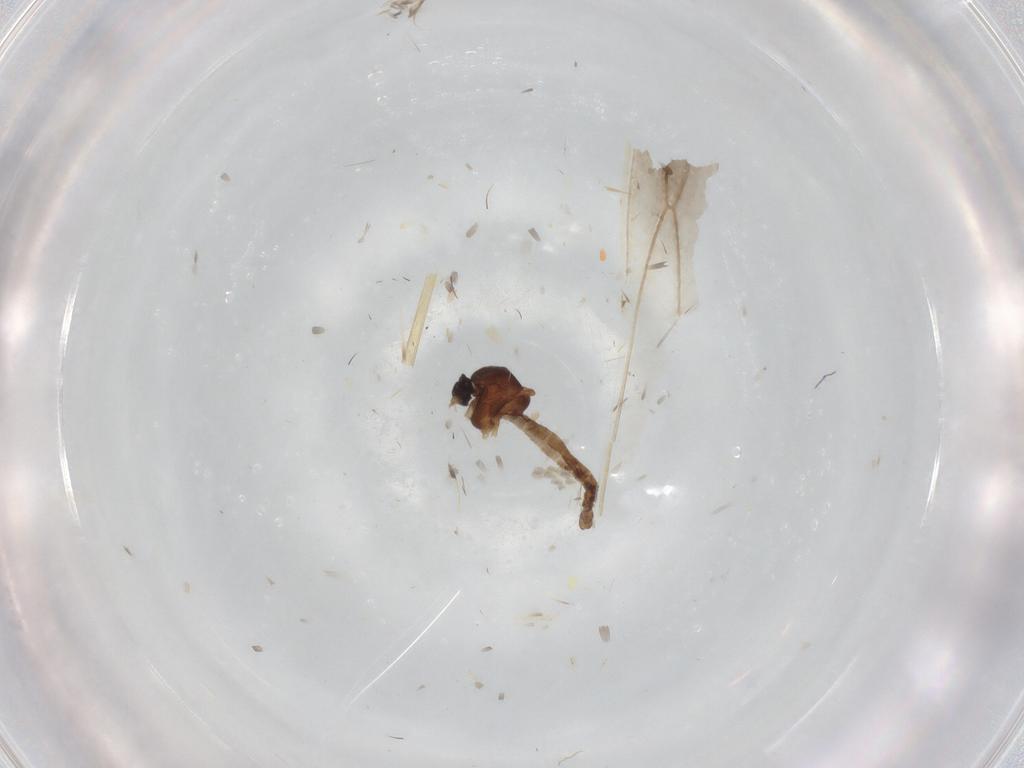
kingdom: Animalia
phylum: Arthropoda
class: Insecta
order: Diptera
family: Ceratopogonidae
